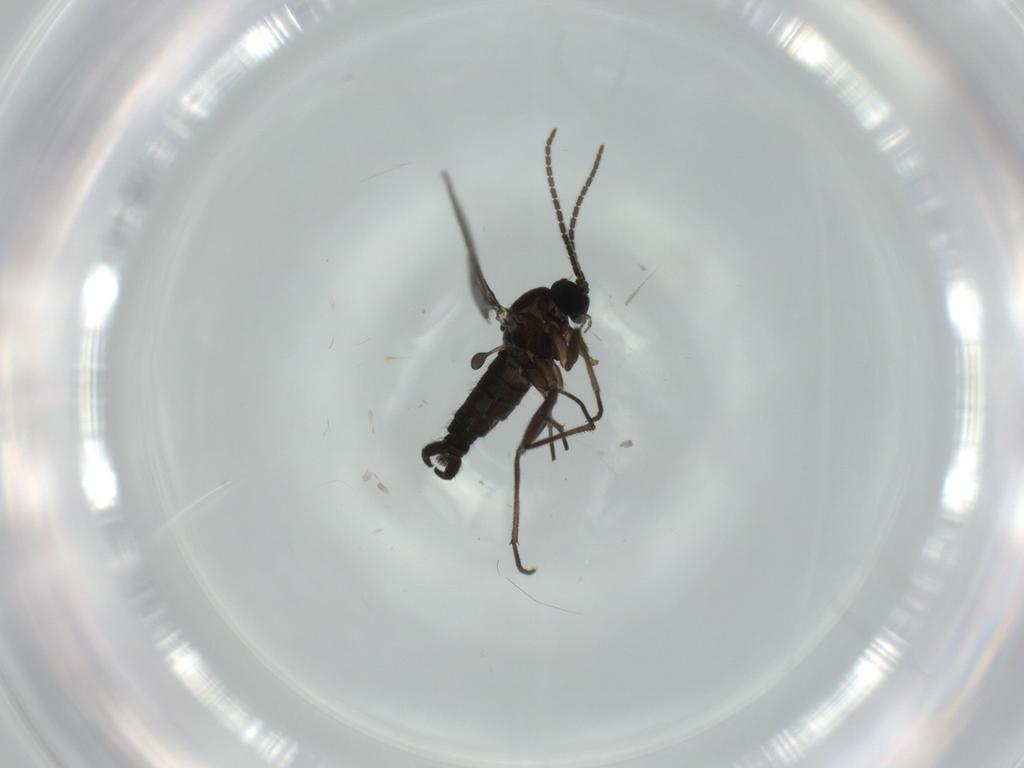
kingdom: Animalia
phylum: Arthropoda
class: Insecta
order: Diptera
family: Sciaridae
